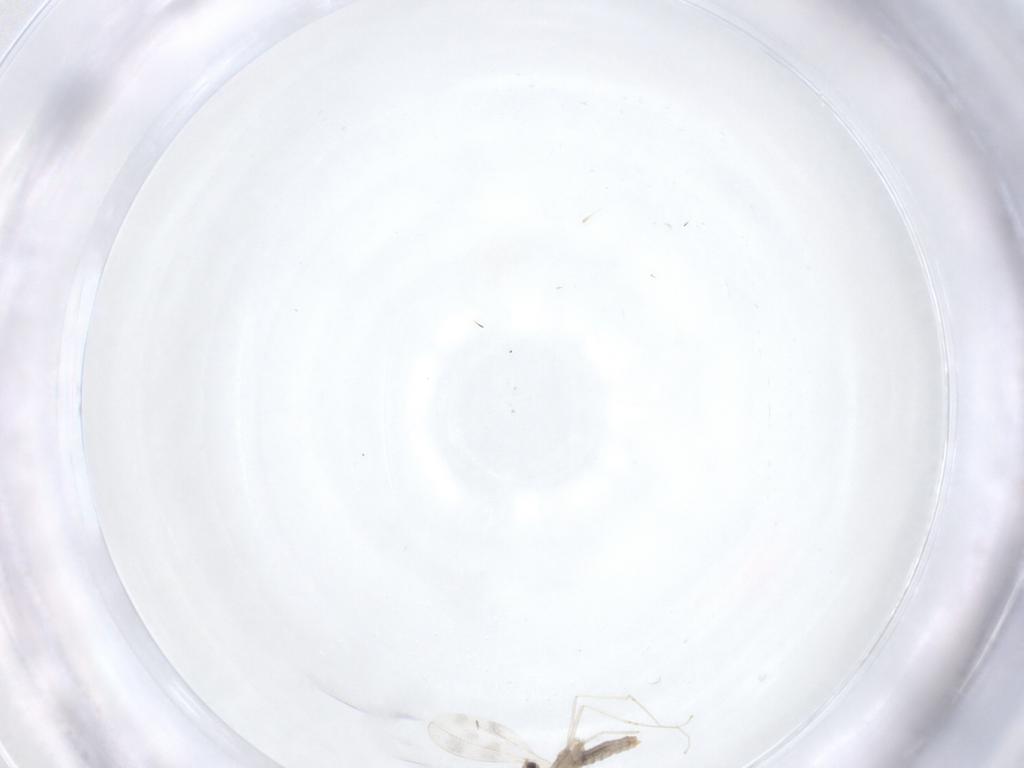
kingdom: Animalia
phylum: Arthropoda
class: Insecta
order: Diptera
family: Cecidomyiidae
